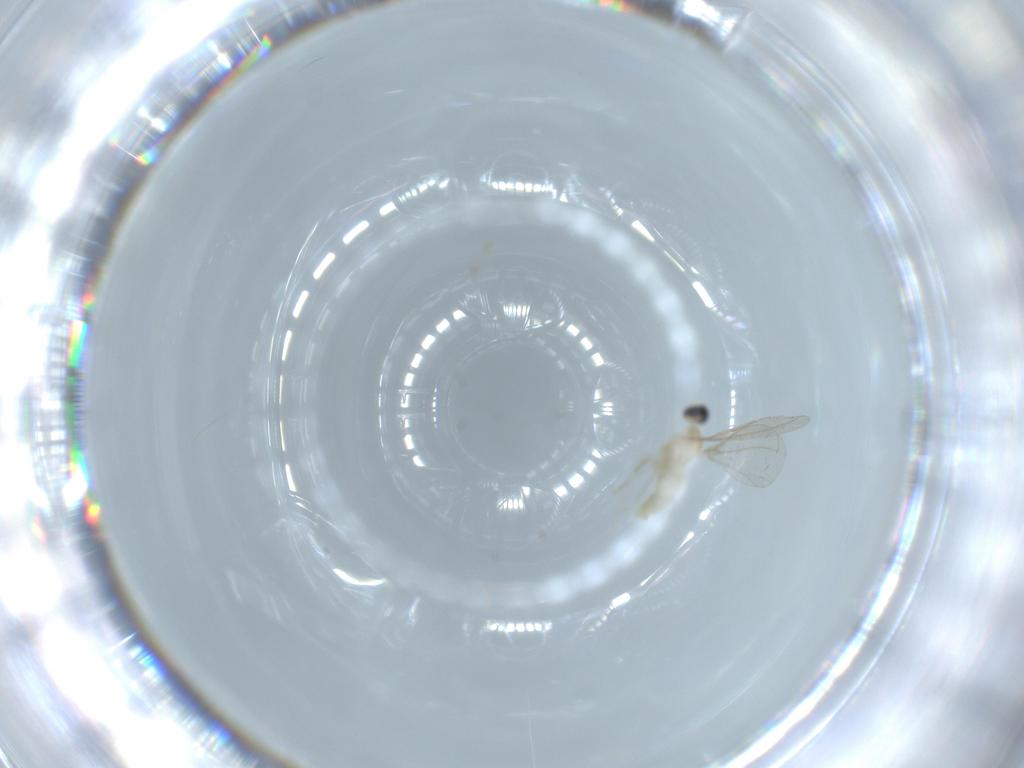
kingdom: Animalia
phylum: Arthropoda
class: Insecta
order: Diptera
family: Cecidomyiidae
